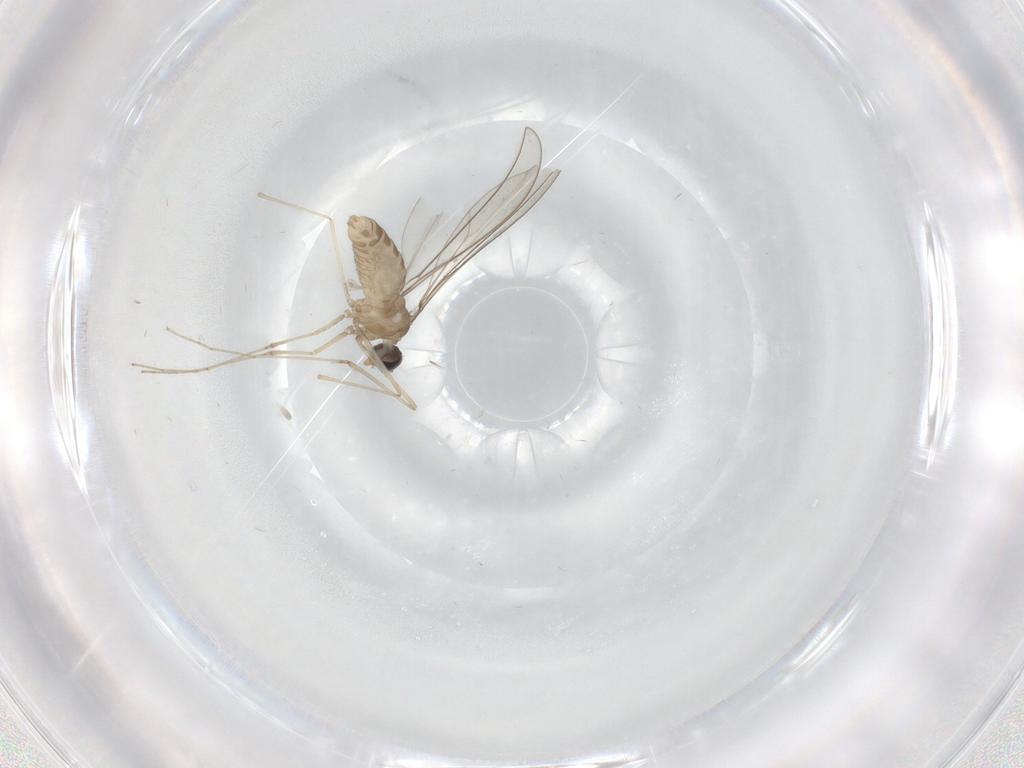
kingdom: Animalia
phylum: Arthropoda
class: Insecta
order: Diptera
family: Cecidomyiidae
